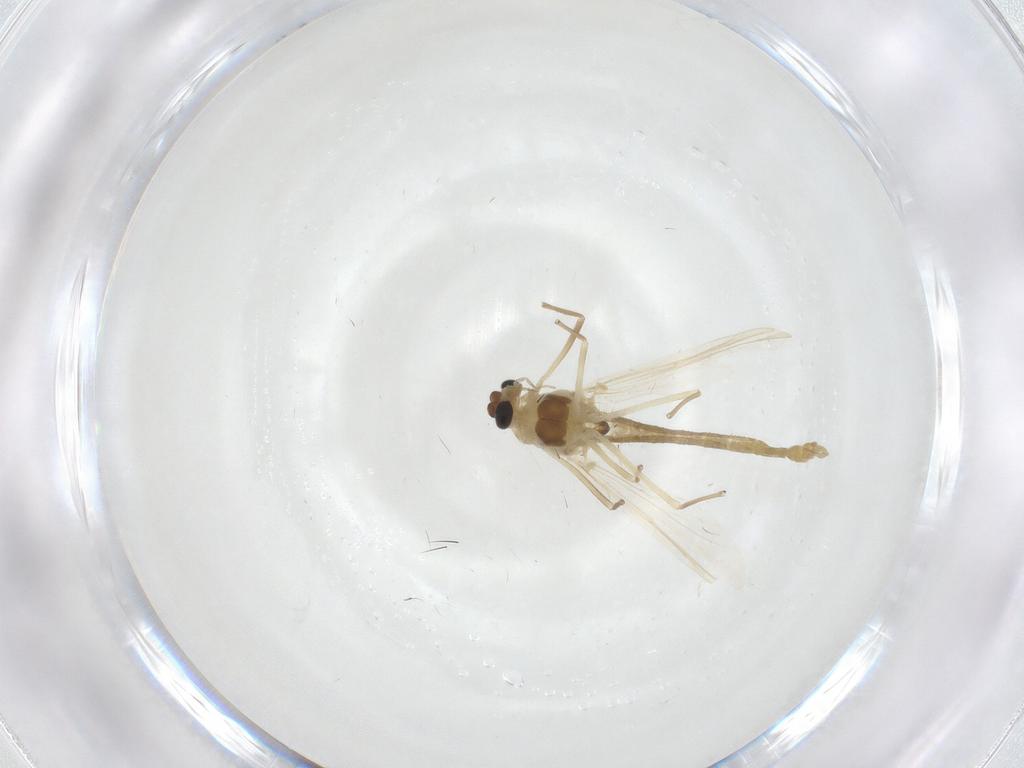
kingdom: Animalia
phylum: Arthropoda
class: Insecta
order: Diptera
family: Chironomidae
